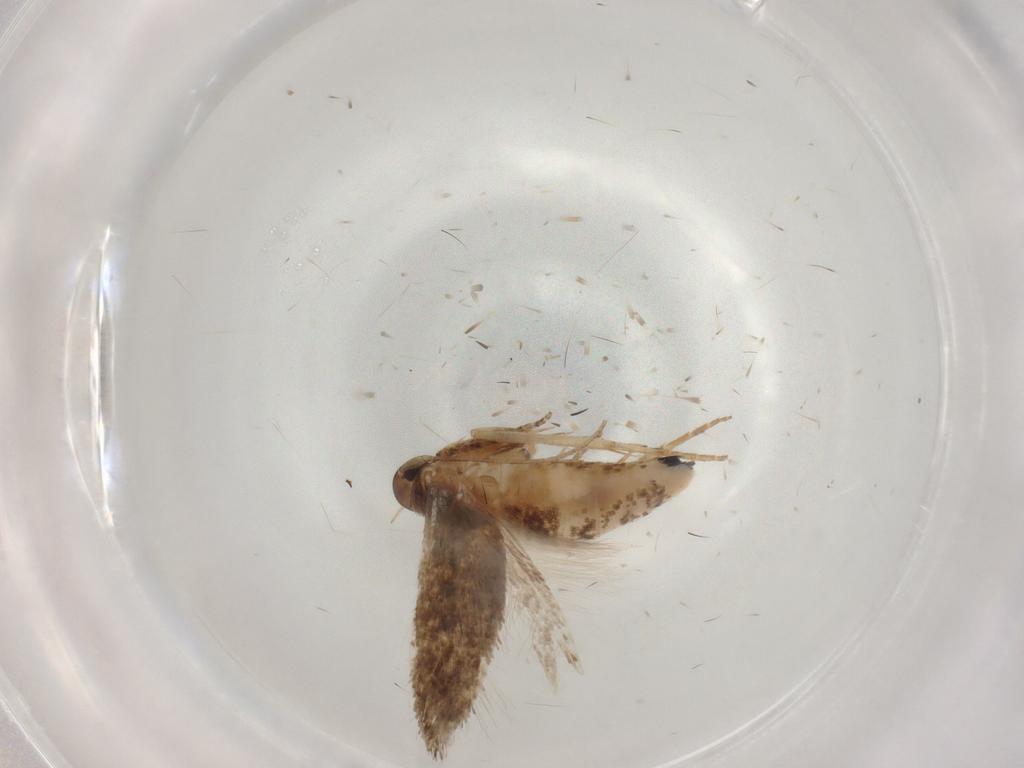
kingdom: Animalia
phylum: Arthropoda
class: Insecta
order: Lepidoptera
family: Cosmopterigidae
